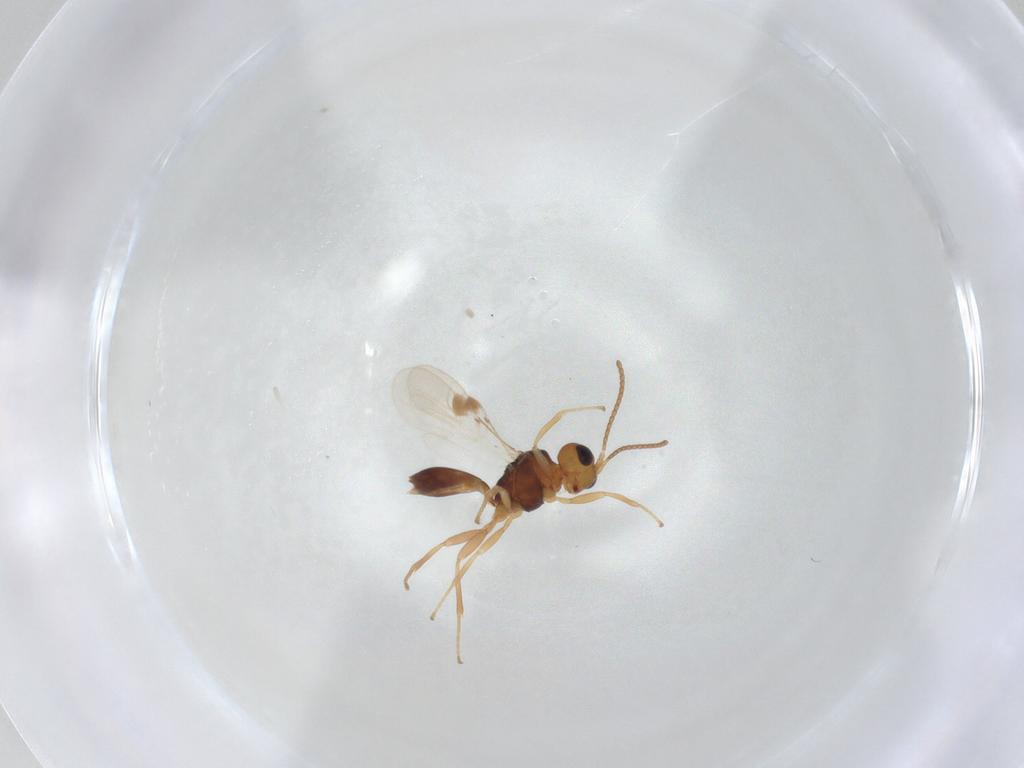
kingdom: Animalia
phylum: Arthropoda
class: Insecta
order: Hymenoptera
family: Braconidae
